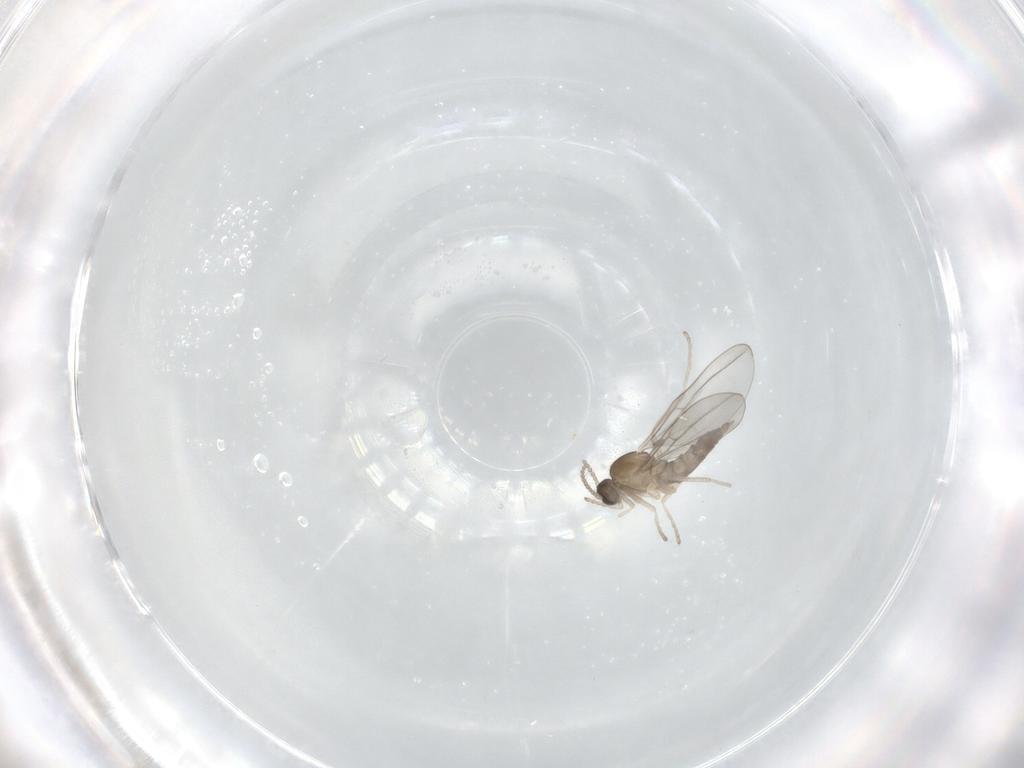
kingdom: Animalia
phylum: Arthropoda
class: Insecta
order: Diptera
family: Cecidomyiidae
